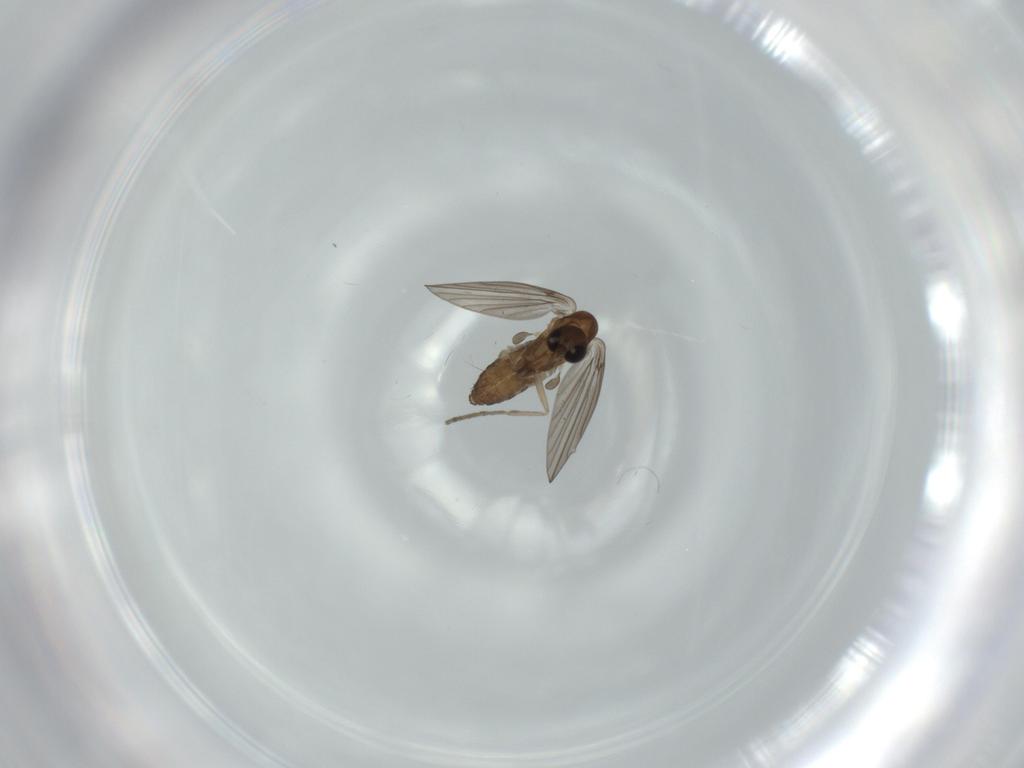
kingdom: Animalia
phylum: Arthropoda
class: Insecta
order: Diptera
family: Psychodidae
